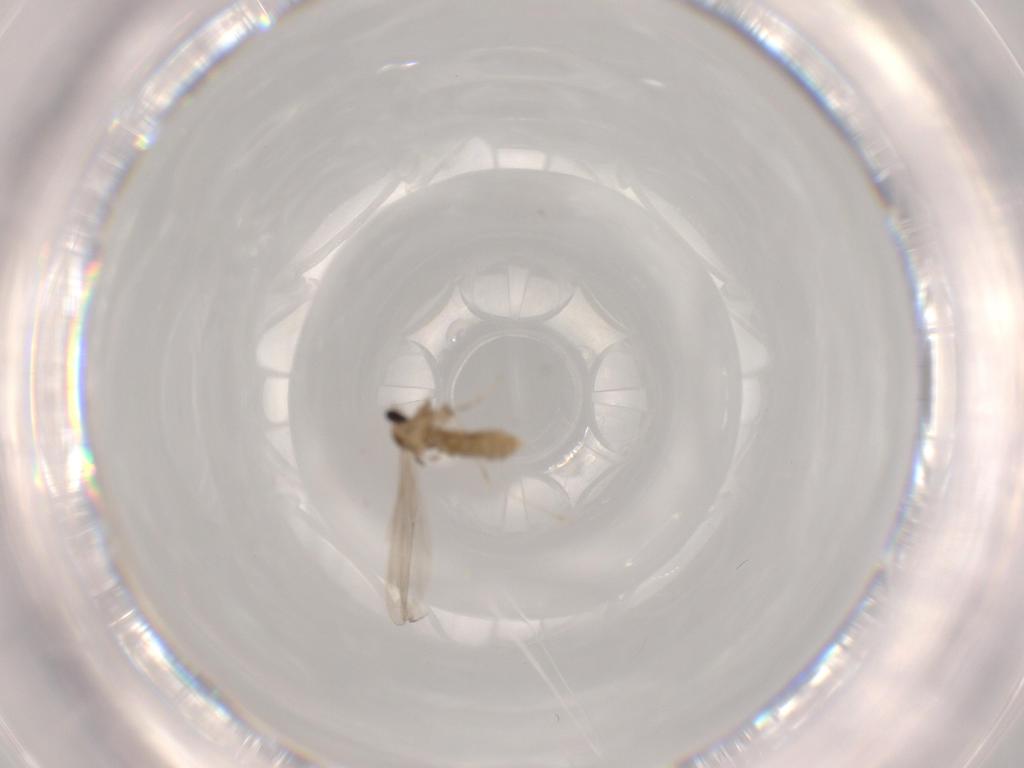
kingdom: Animalia
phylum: Arthropoda
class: Insecta
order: Diptera
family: Cecidomyiidae
